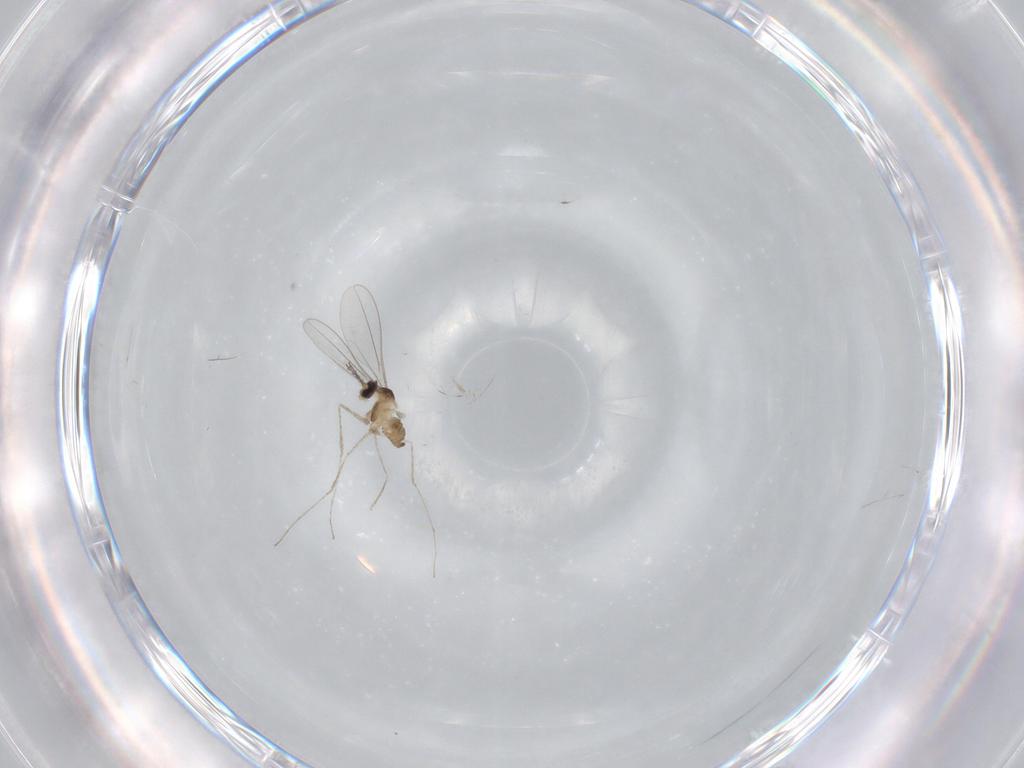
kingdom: Animalia
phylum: Arthropoda
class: Insecta
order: Diptera
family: Cecidomyiidae
